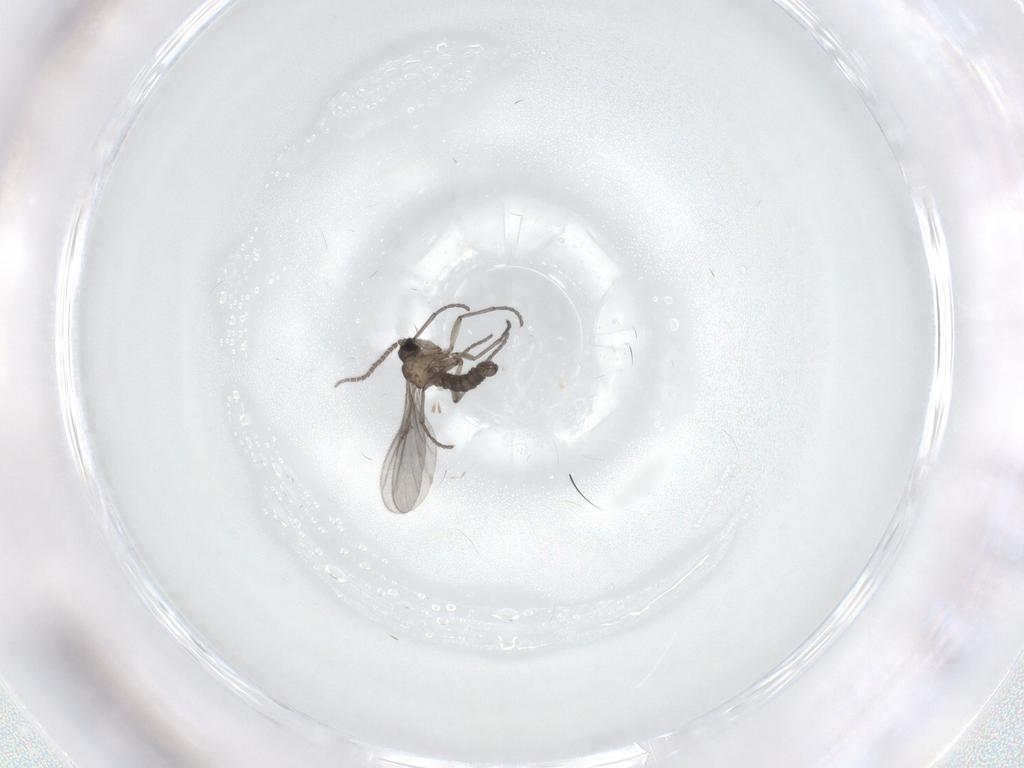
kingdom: Animalia
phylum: Arthropoda
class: Insecta
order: Diptera
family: Sciaridae
